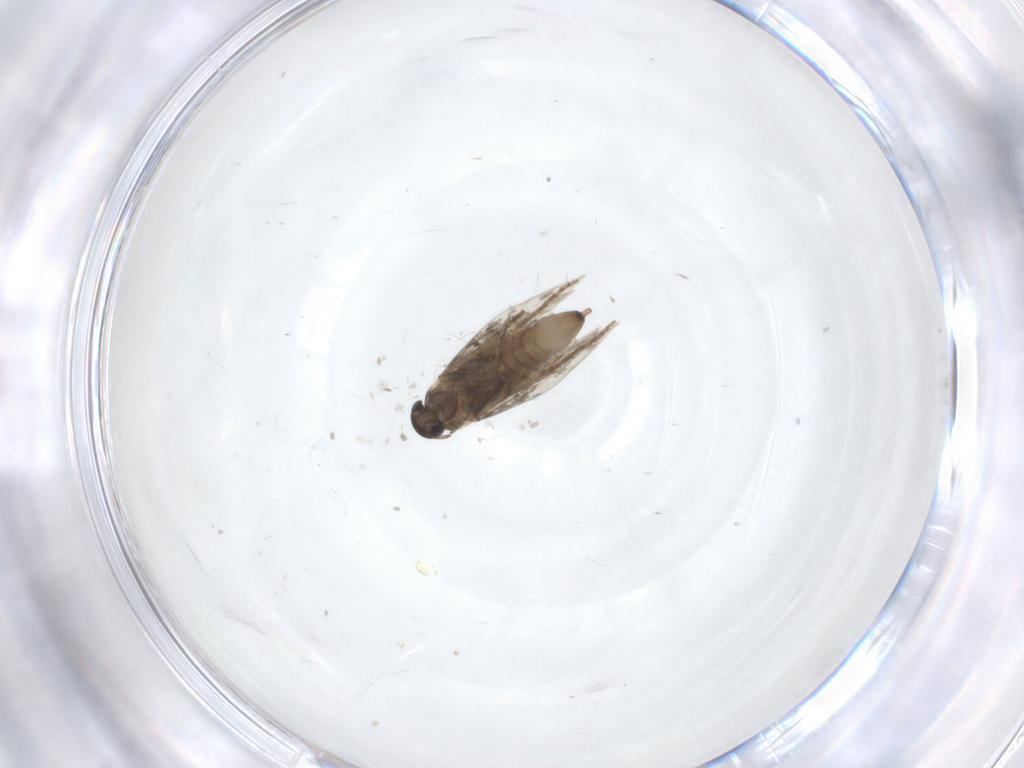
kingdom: Animalia
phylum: Arthropoda
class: Insecta
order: Lepidoptera
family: Heliozelidae
